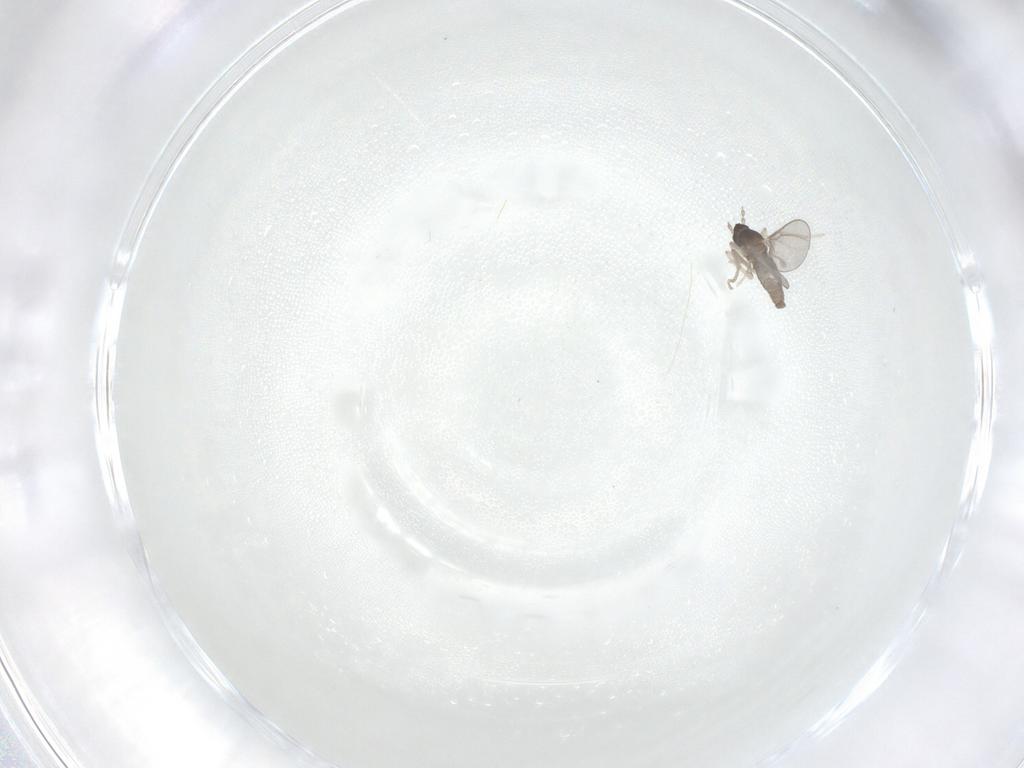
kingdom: Animalia
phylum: Arthropoda
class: Insecta
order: Diptera
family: Cecidomyiidae
